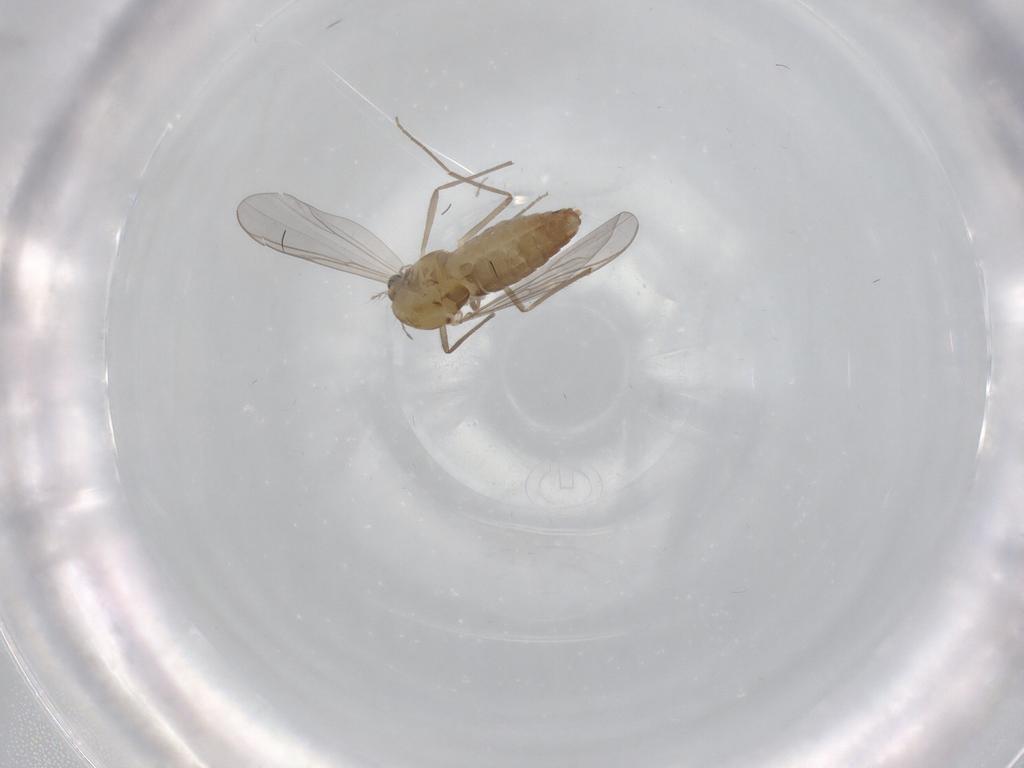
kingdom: Animalia
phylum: Arthropoda
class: Insecta
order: Diptera
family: Chironomidae
